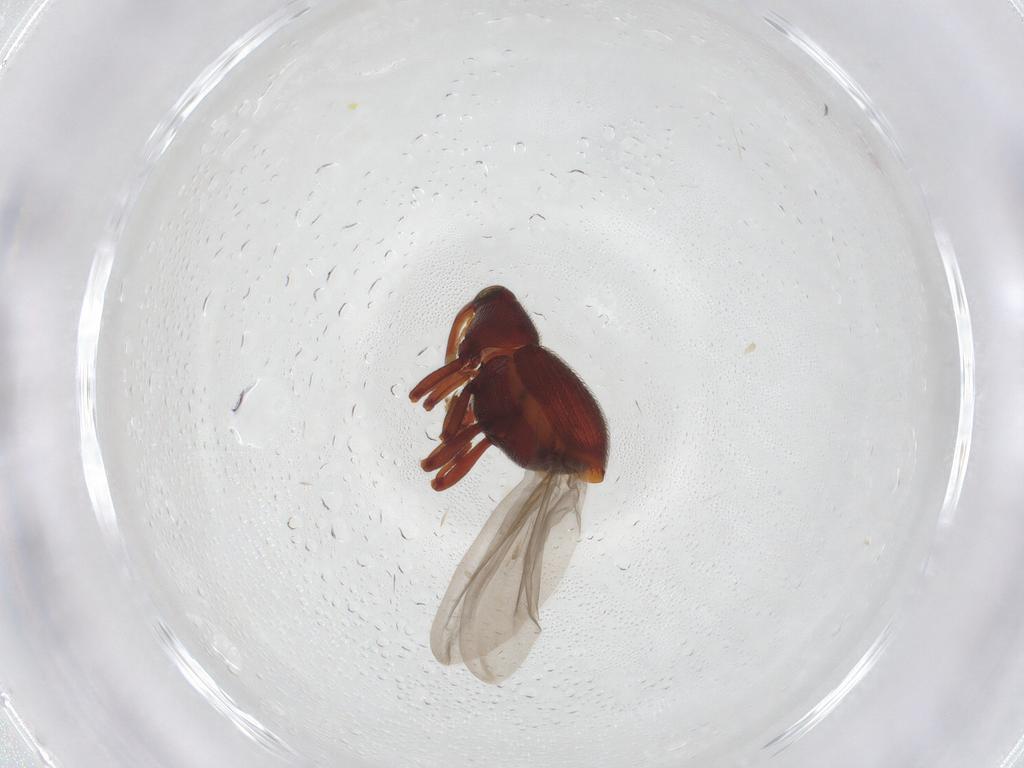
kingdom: Animalia
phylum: Arthropoda
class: Insecta
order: Coleoptera
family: Curculionidae
